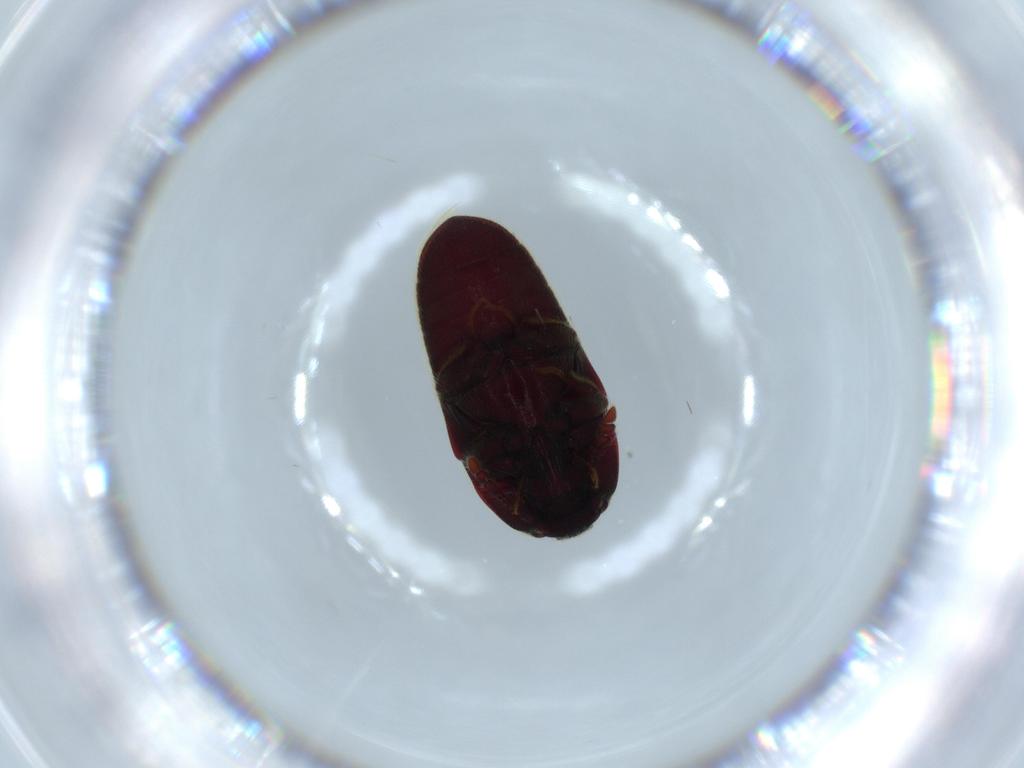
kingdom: Animalia
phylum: Arthropoda
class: Insecta
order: Coleoptera
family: Throscidae
